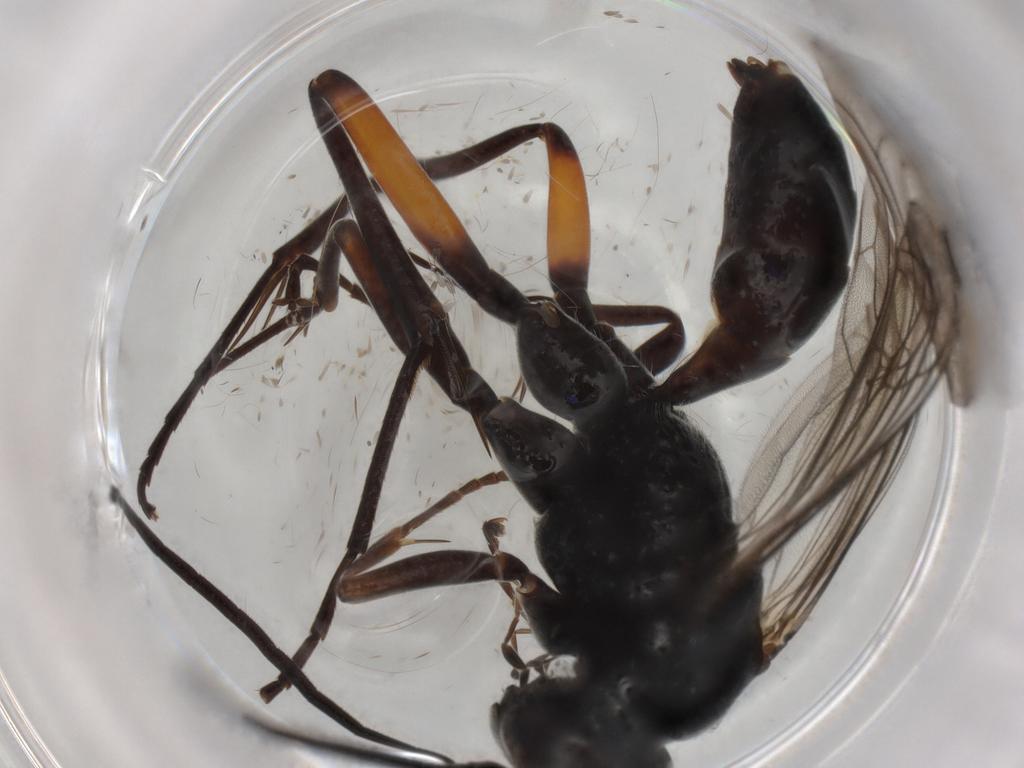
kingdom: Animalia
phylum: Arthropoda
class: Insecta
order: Hymenoptera
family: Pompilidae
